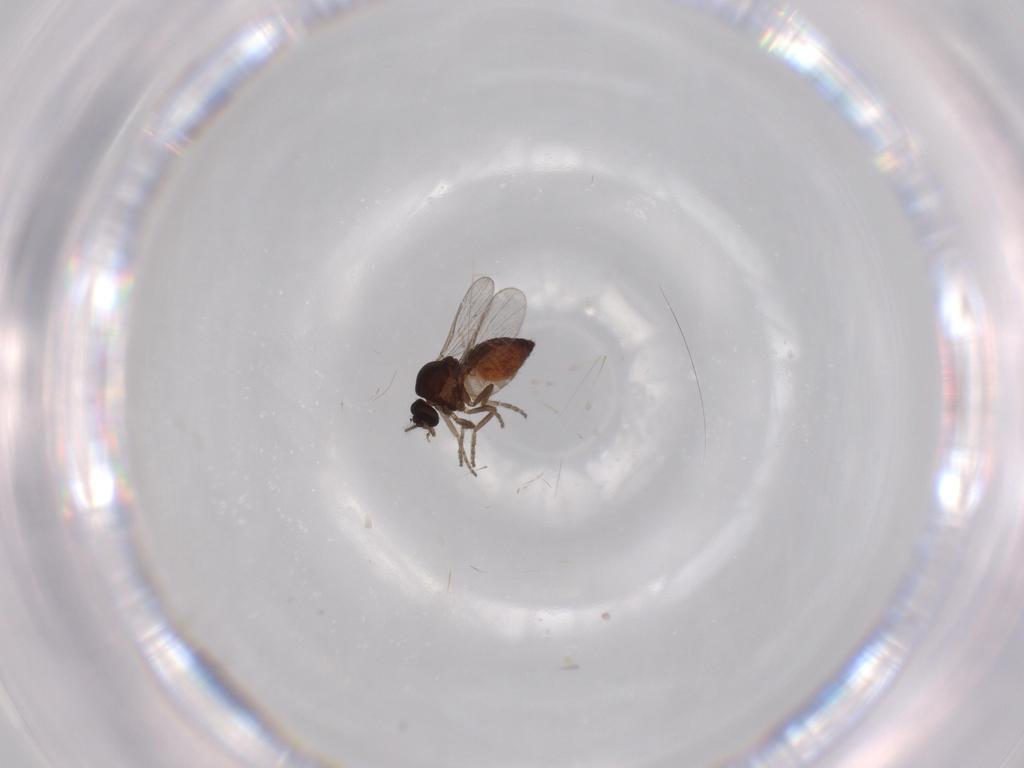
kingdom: Animalia
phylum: Arthropoda
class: Insecta
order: Diptera
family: Ceratopogonidae
